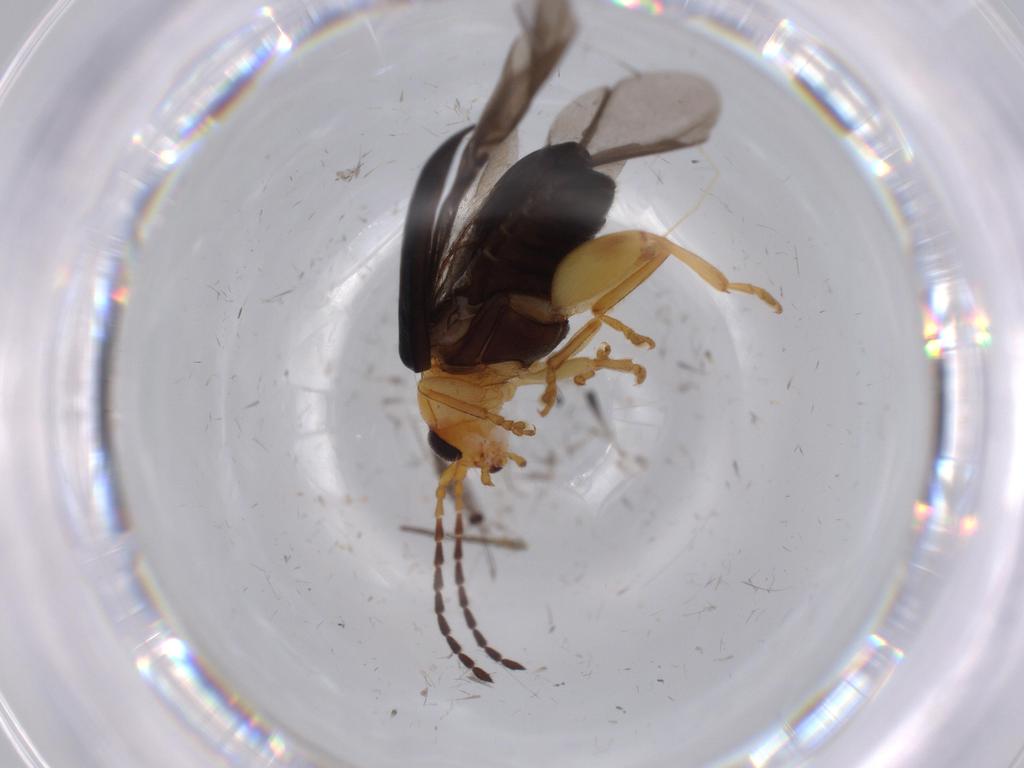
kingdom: Animalia
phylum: Arthropoda
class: Insecta
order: Coleoptera
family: Chrysomelidae
